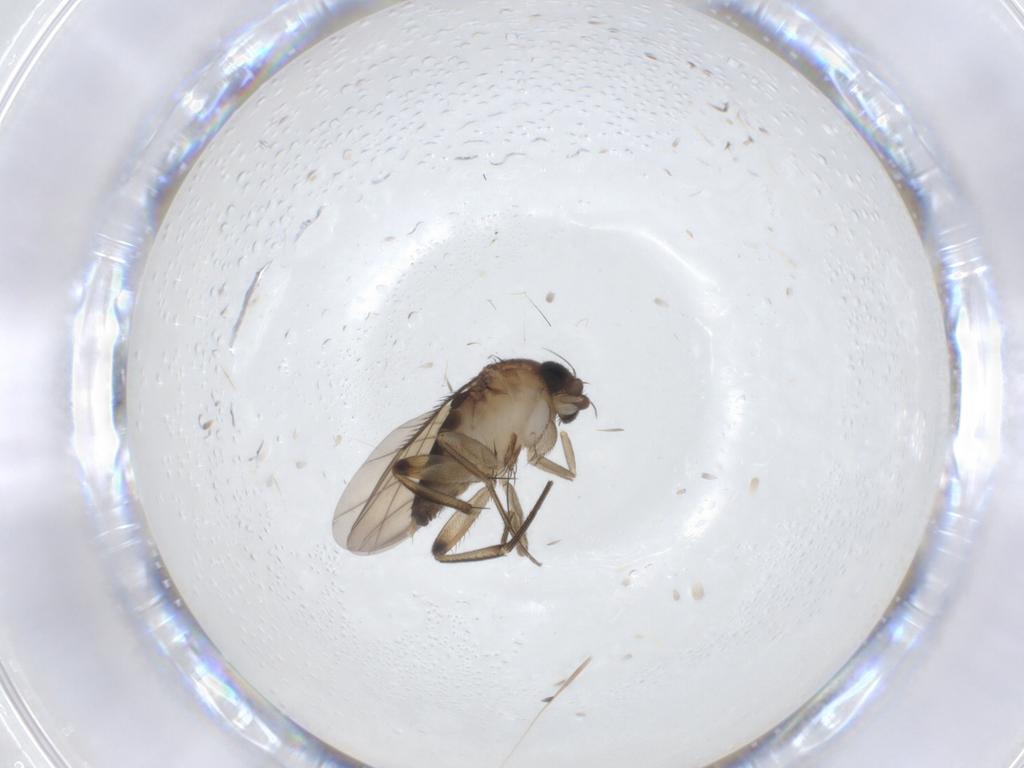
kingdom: Animalia
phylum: Arthropoda
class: Insecta
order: Diptera
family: Phoridae
